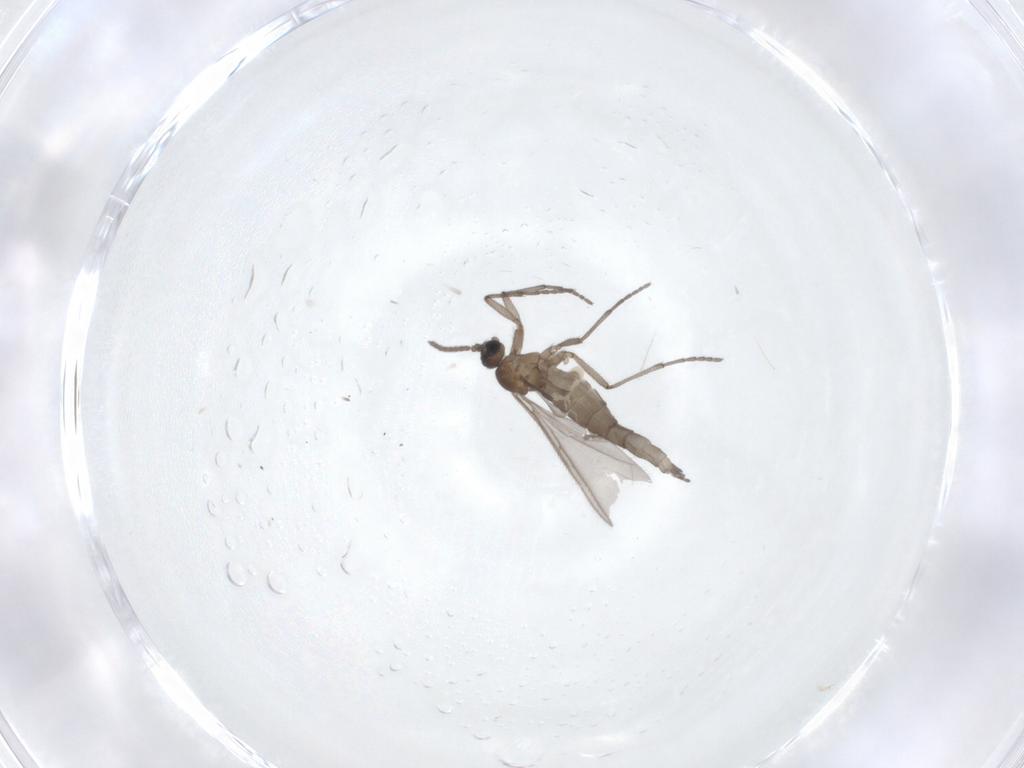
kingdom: Animalia
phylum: Arthropoda
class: Insecta
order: Diptera
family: Sciaridae
